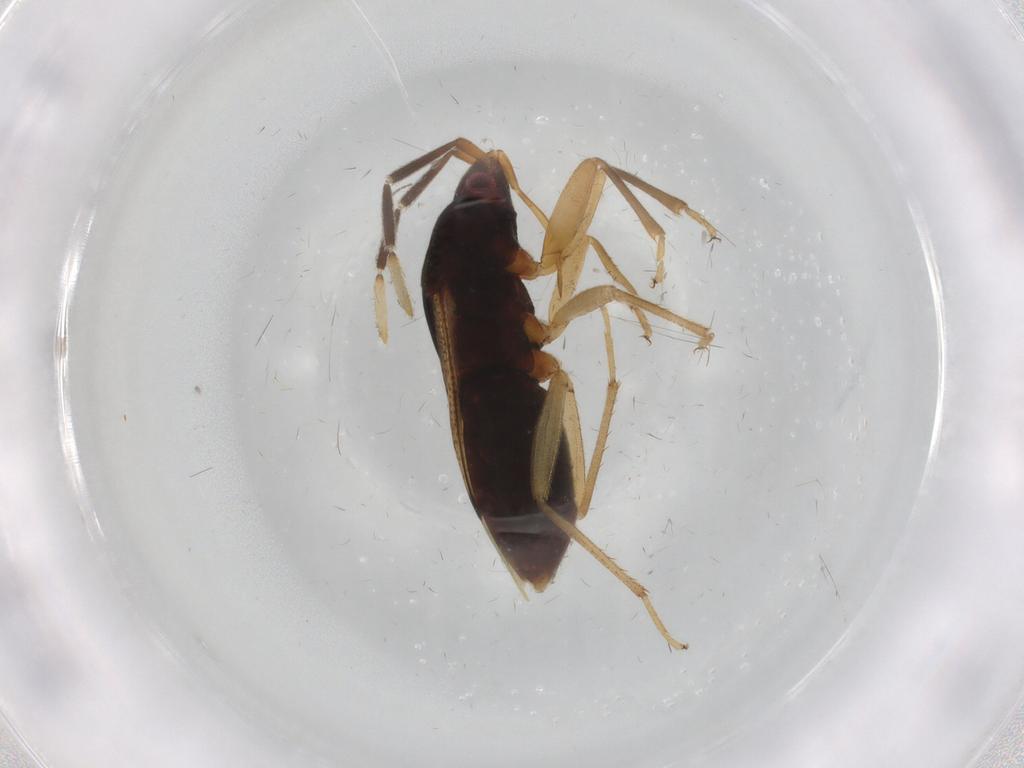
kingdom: Animalia
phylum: Arthropoda
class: Insecta
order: Hemiptera
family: Rhyparochromidae
